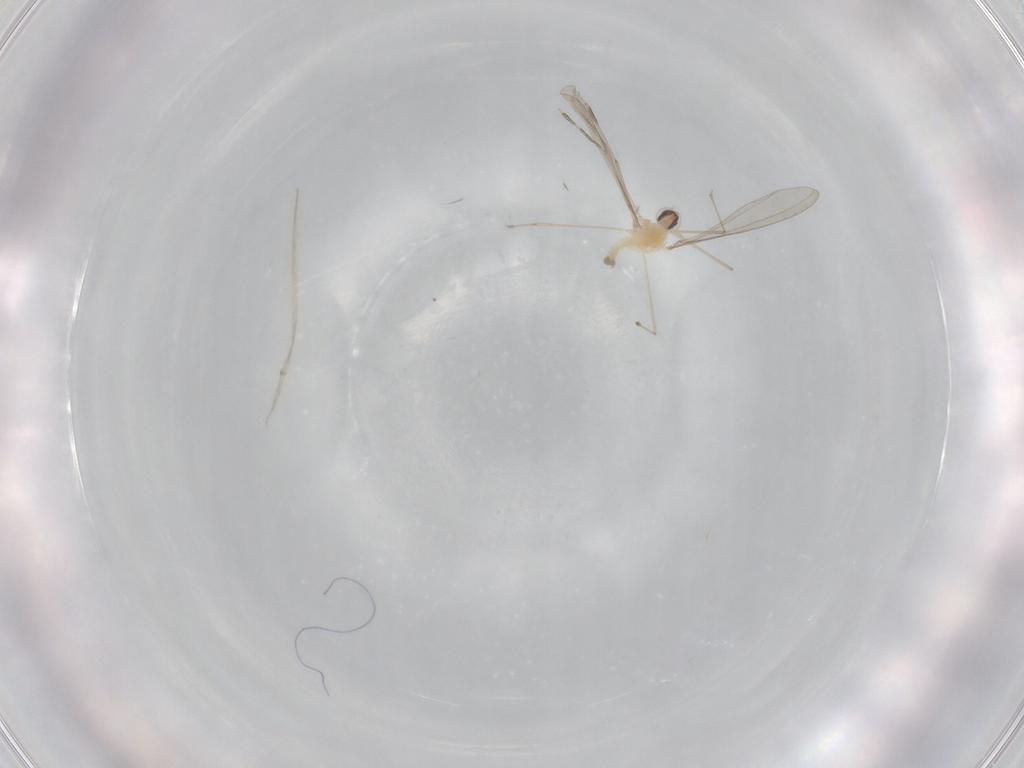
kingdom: Animalia
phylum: Arthropoda
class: Insecta
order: Diptera
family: Cecidomyiidae
